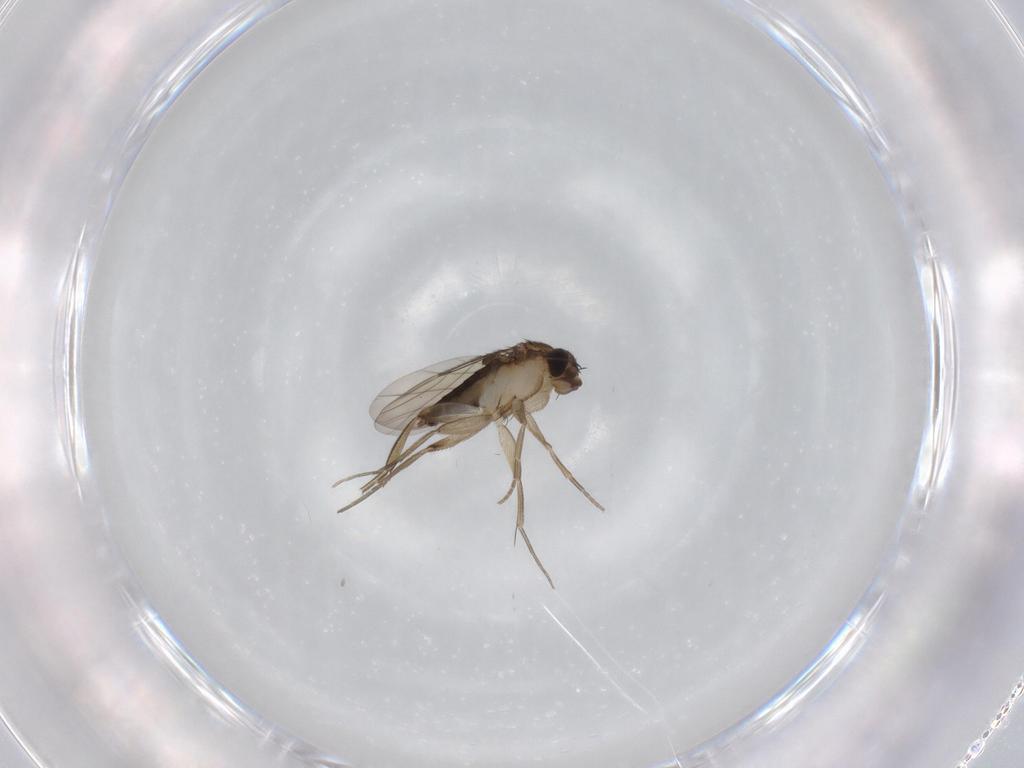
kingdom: Animalia
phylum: Arthropoda
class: Insecta
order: Diptera
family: Phoridae
